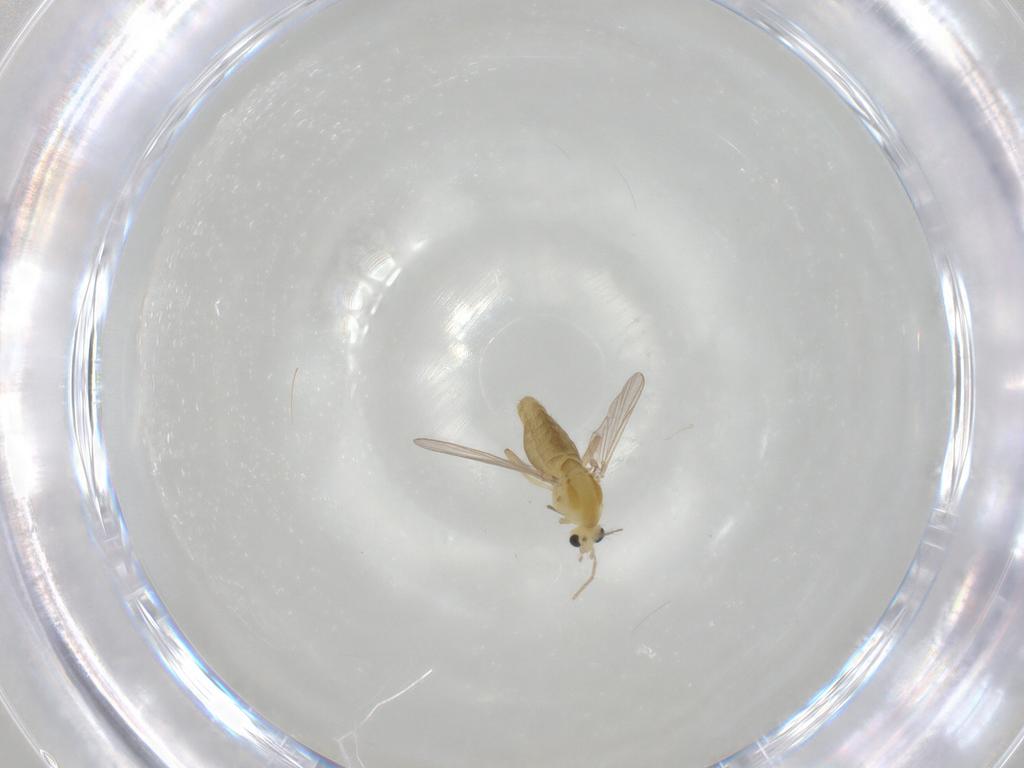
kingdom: Animalia
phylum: Arthropoda
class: Insecta
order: Diptera
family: Chironomidae
